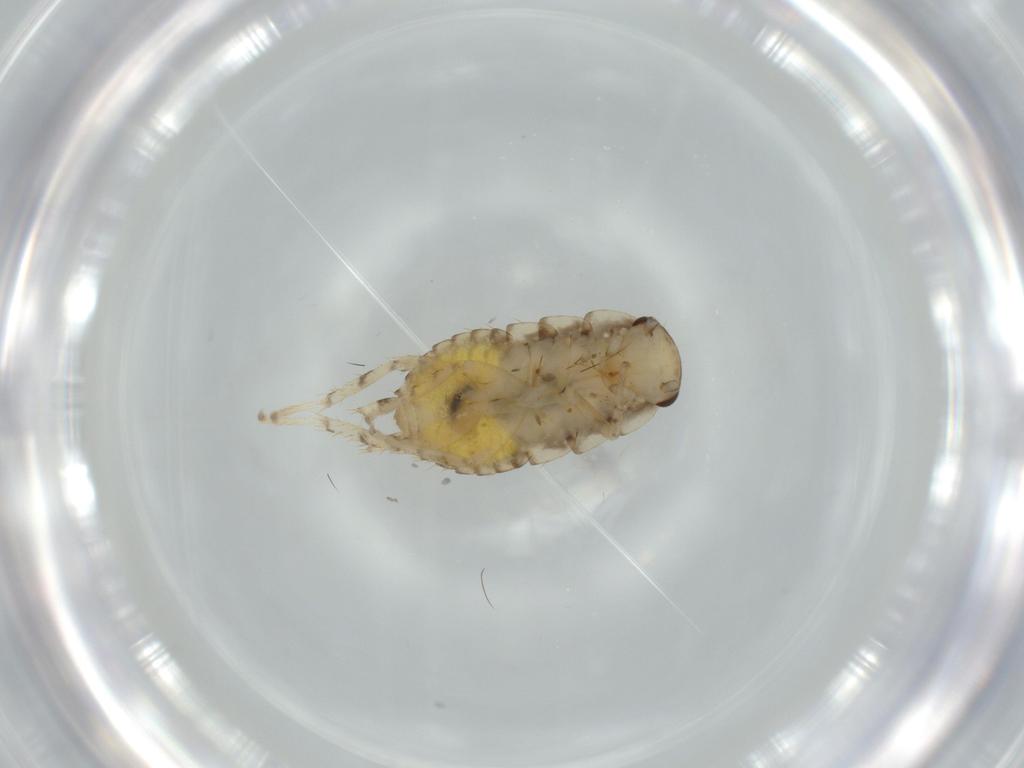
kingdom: Animalia
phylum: Arthropoda
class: Insecta
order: Blattodea
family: Ectobiidae
